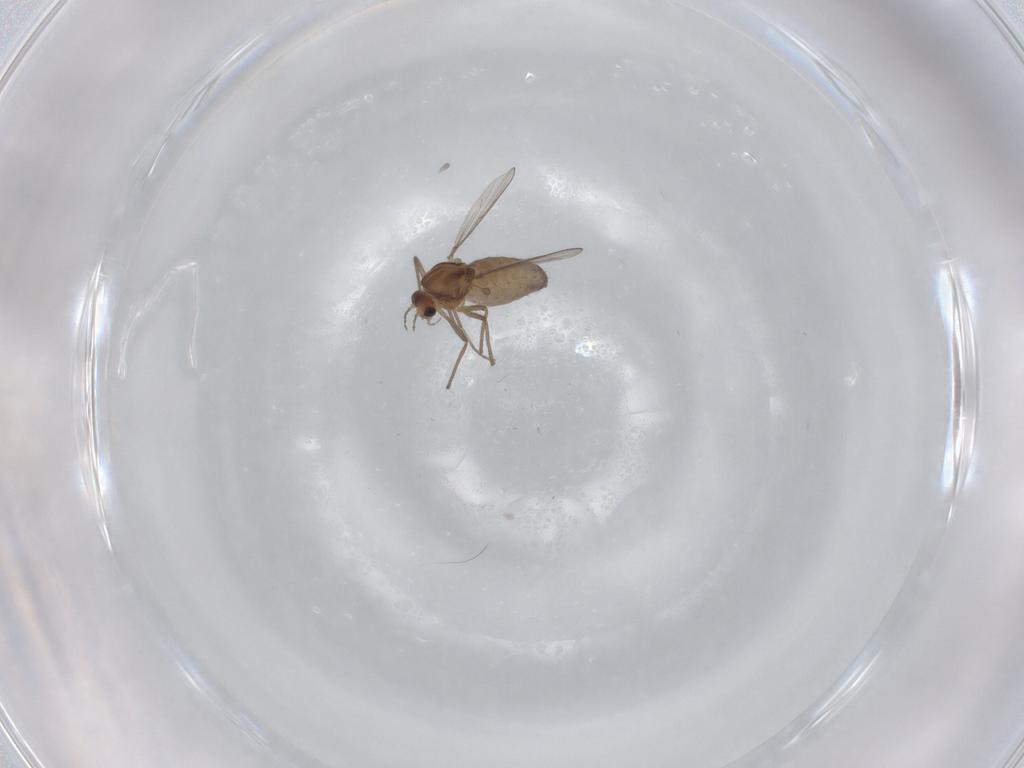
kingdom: Animalia
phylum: Arthropoda
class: Insecta
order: Diptera
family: Chironomidae
